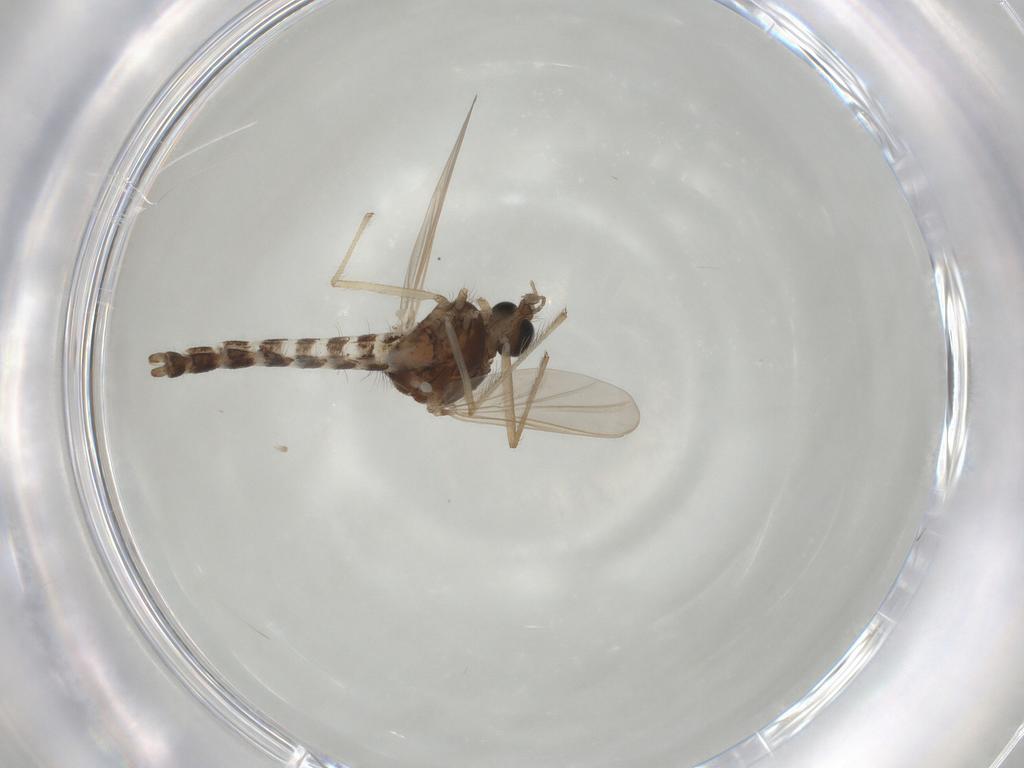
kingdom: Animalia
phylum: Arthropoda
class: Insecta
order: Diptera
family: Chironomidae
